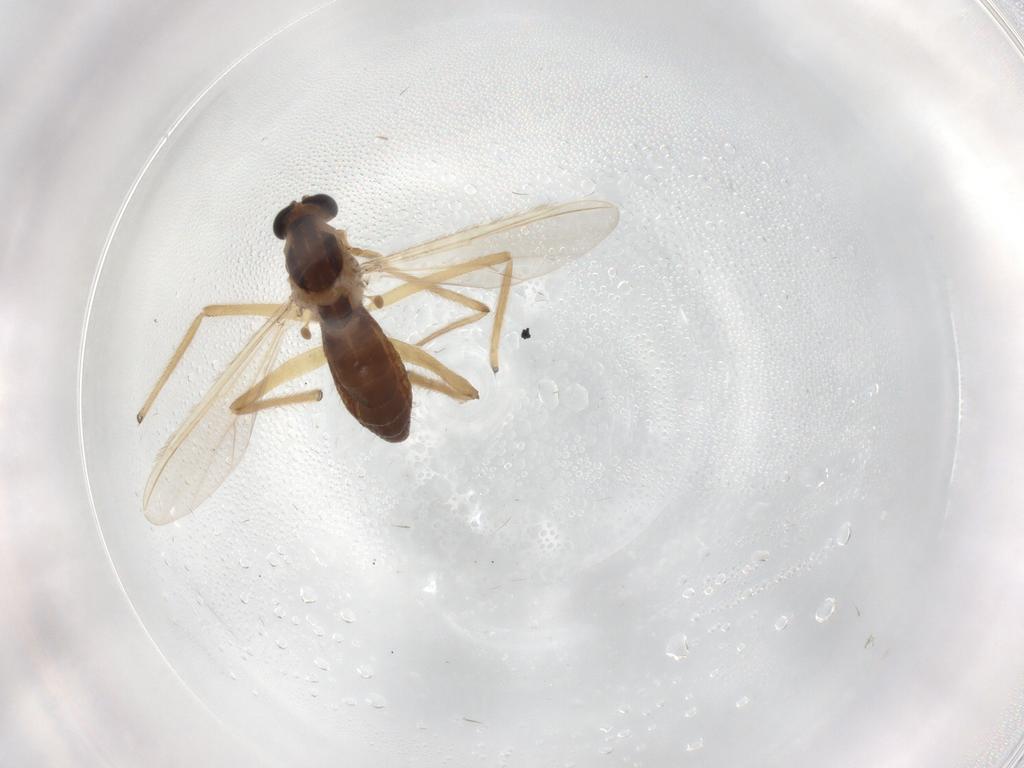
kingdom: Animalia
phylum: Arthropoda
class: Insecta
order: Diptera
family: Chironomidae
